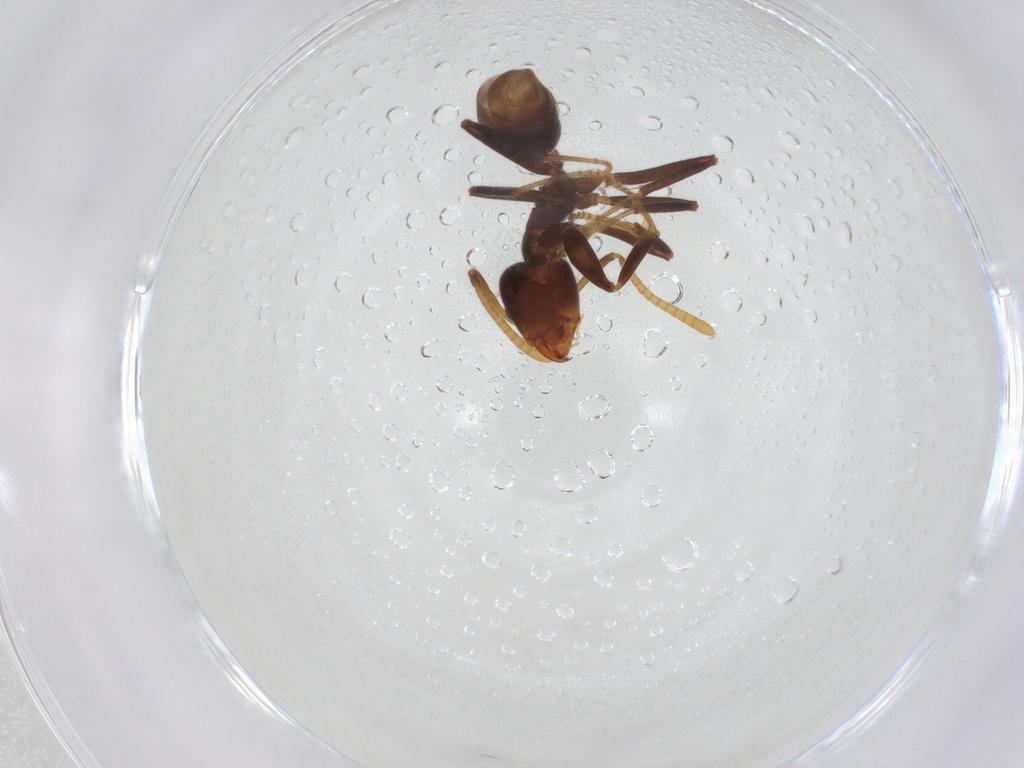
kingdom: Animalia
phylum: Arthropoda
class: Insecta
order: Hymenoptera
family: Formicidae
